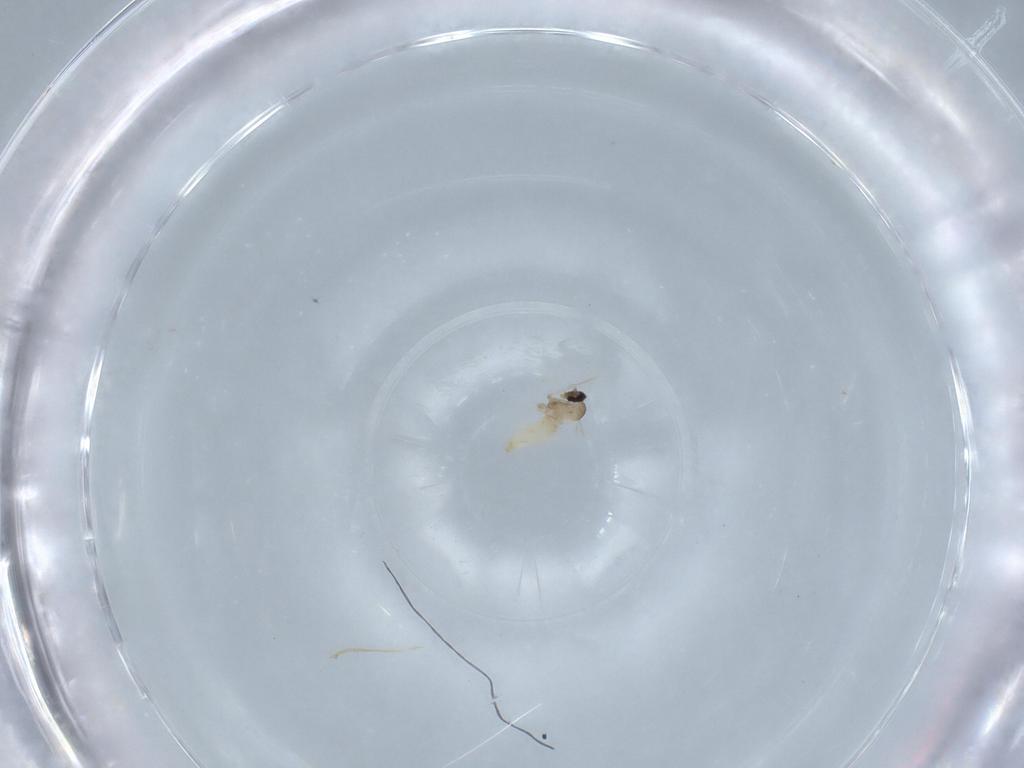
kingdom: Animalia
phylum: Arthropoda
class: Insecta
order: Diptera
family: Cecidomyiidae
